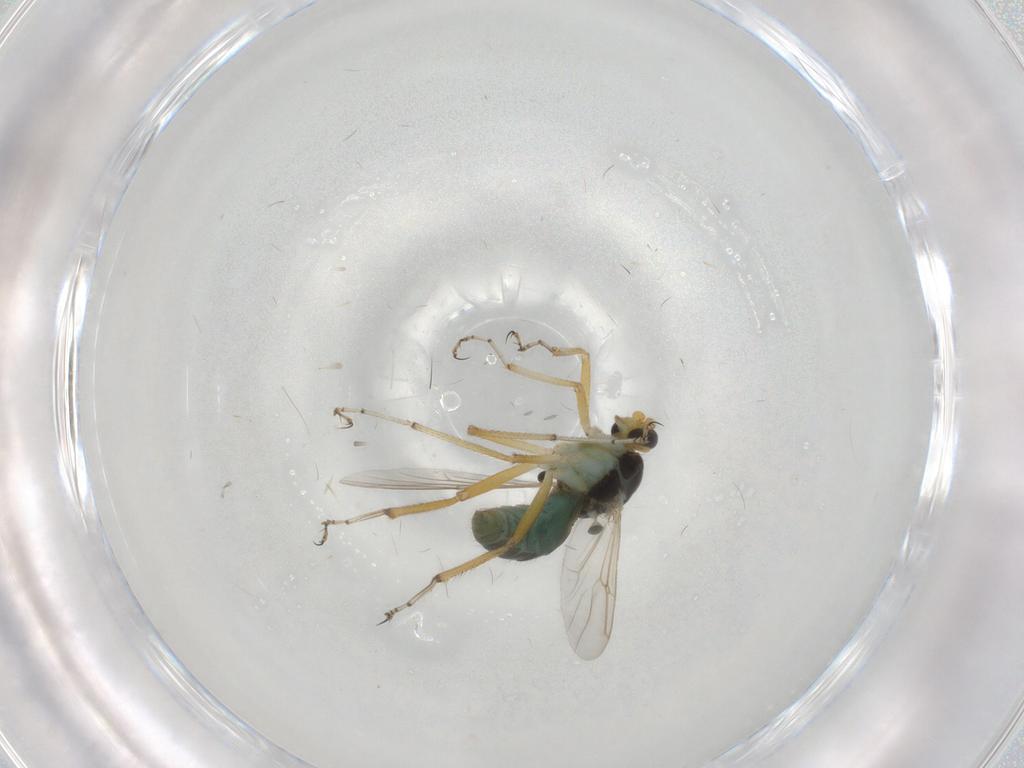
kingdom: Animalia
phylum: Arthropoda
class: Insecta
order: Diptera
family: Ceratopogonidae
